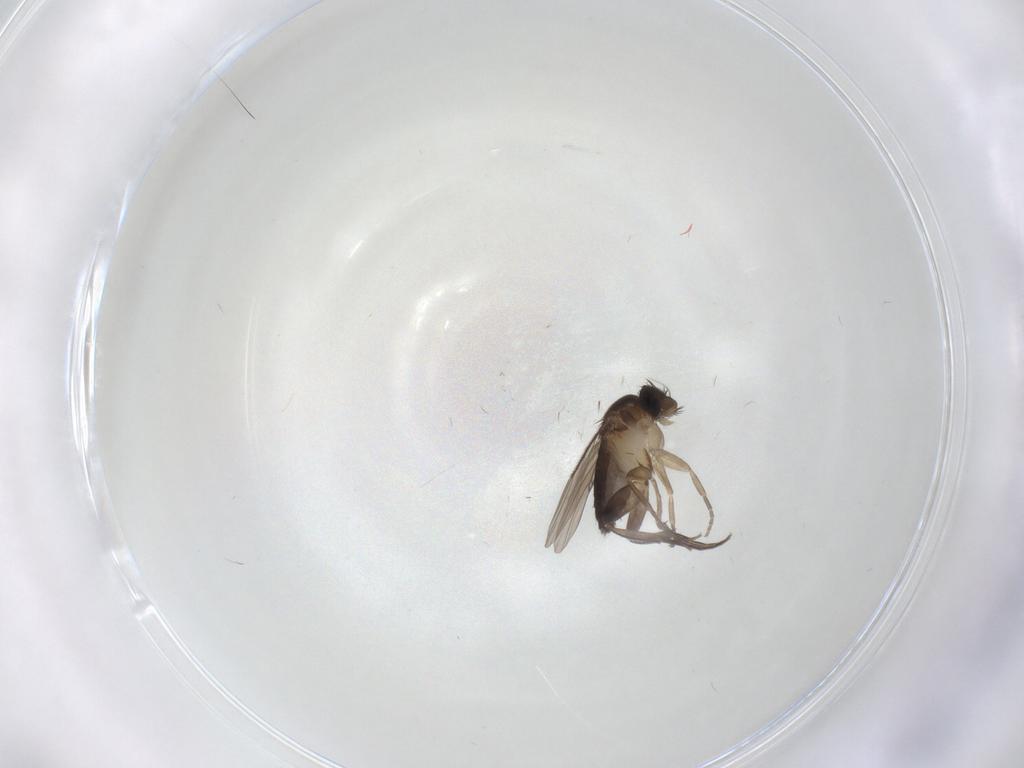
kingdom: Animalia
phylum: Arthropoda
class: Insecta
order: Diptera
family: Phoridae
